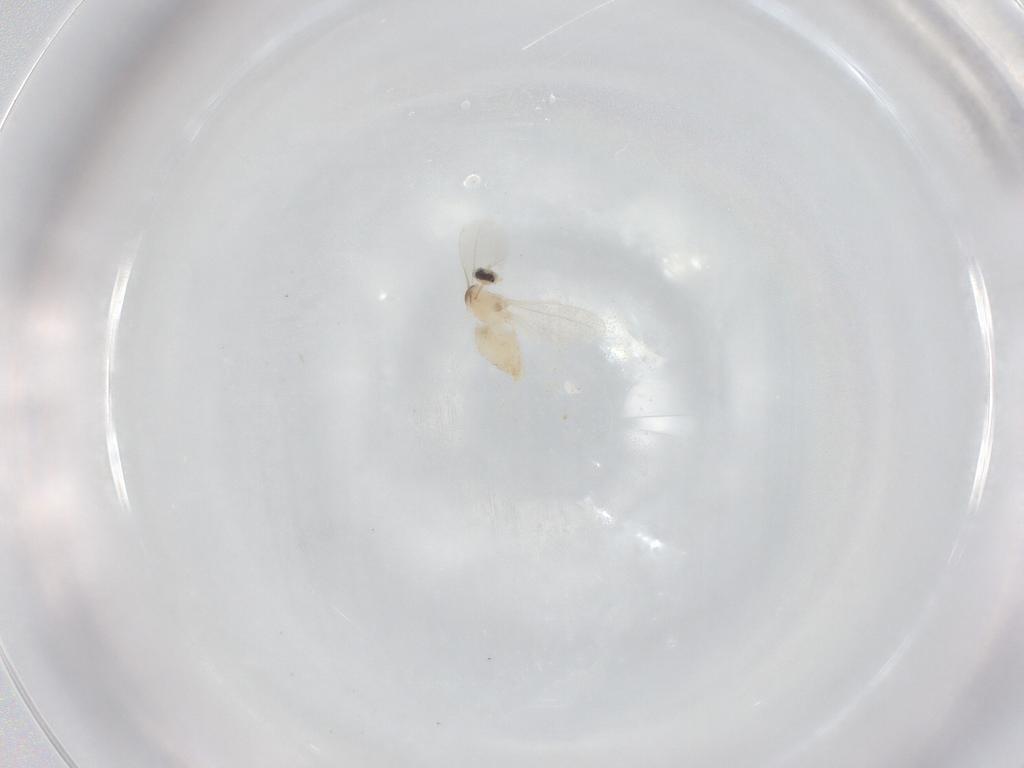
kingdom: Animalia
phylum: Arthropoda
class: Insecta
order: Diptera
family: Cecidomyiidae
